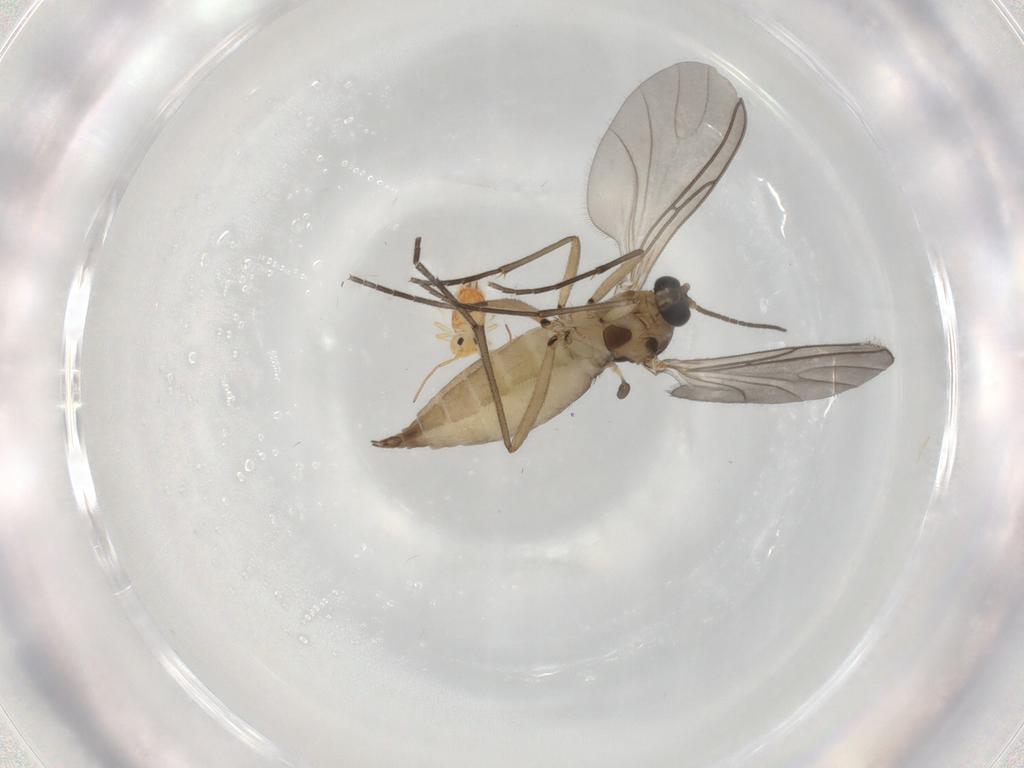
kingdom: Animalia
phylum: Arthropoda
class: Insecta
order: Diptera
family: Sciaridae
